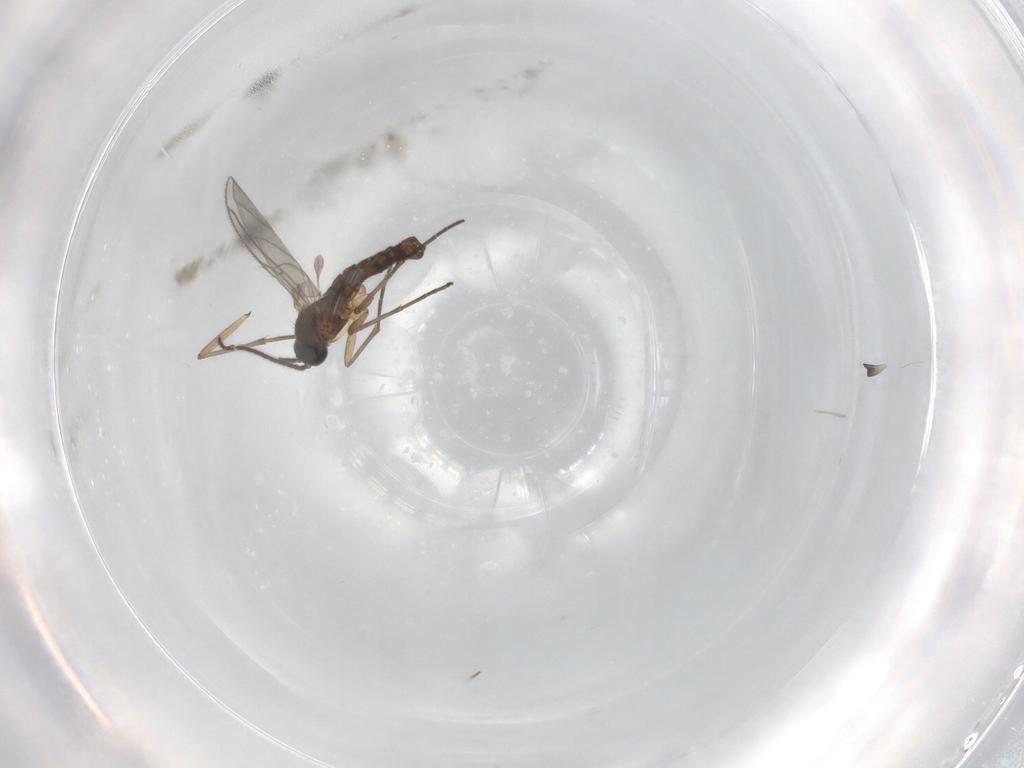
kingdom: Animalia
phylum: Arthropoda
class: Insecta
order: Diptera
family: Sciaridae
